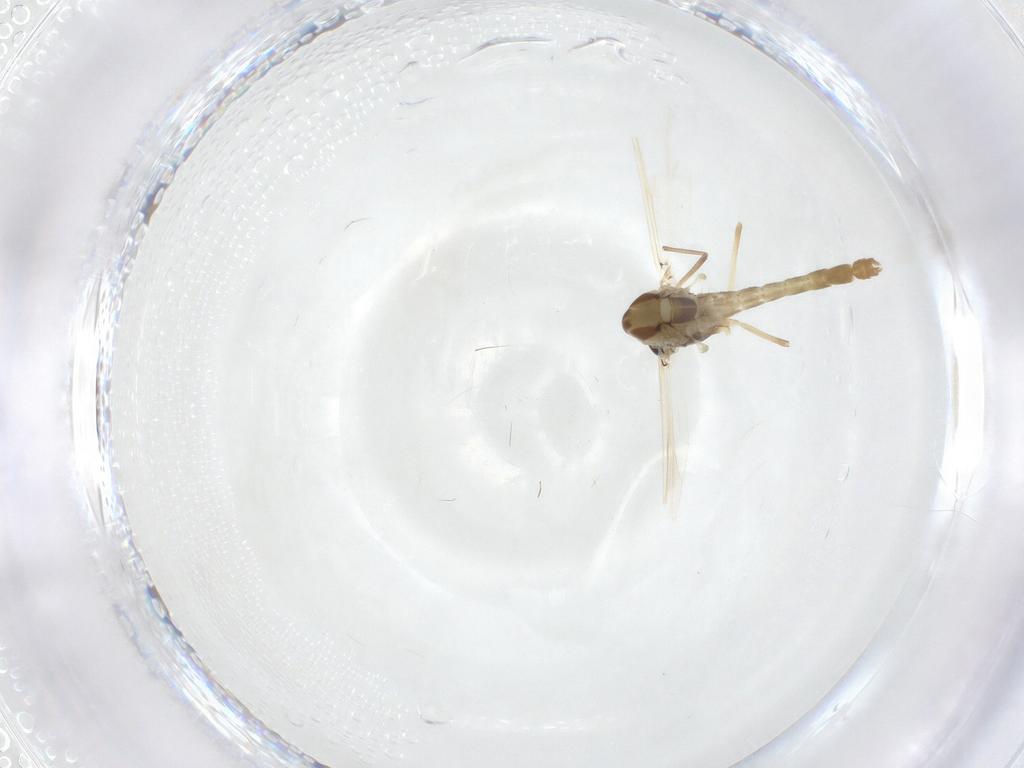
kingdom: Animalia
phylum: Arthropoda
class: Insecta
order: Diptera
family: Chironomidae
